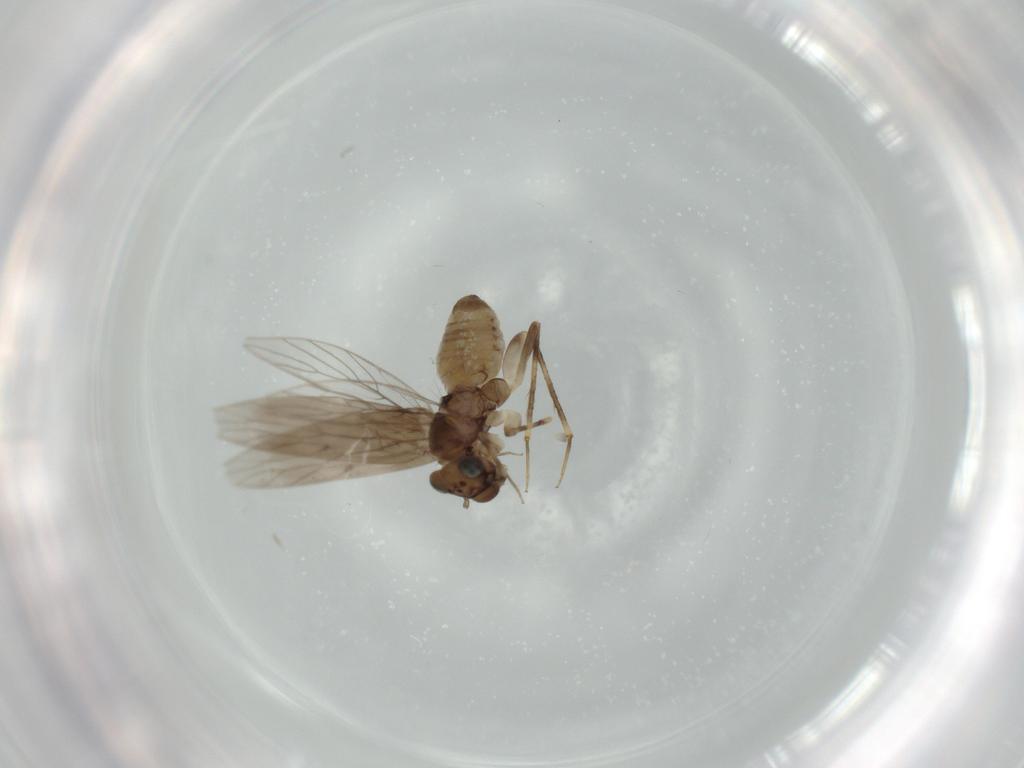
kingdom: Animalia
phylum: Arthropoda
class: Insecta
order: Psocodea
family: Lepidopsocidae
